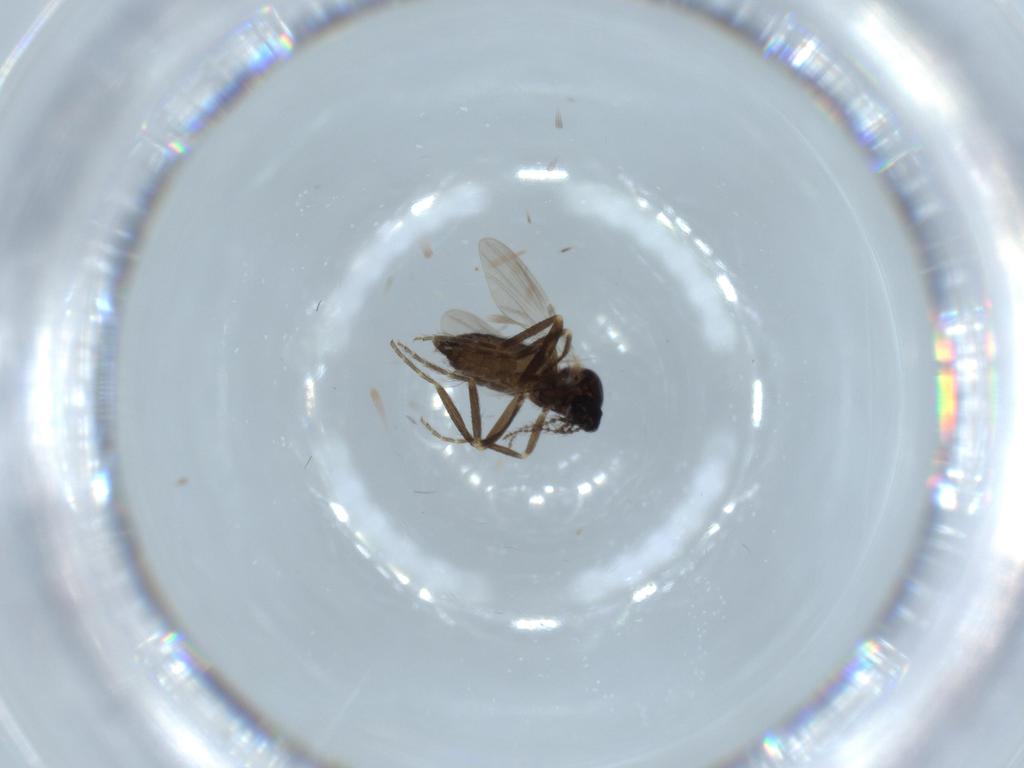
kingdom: Animalia
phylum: Arthropoda
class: Insecta
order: Diptera
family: Ceratopogonidae
